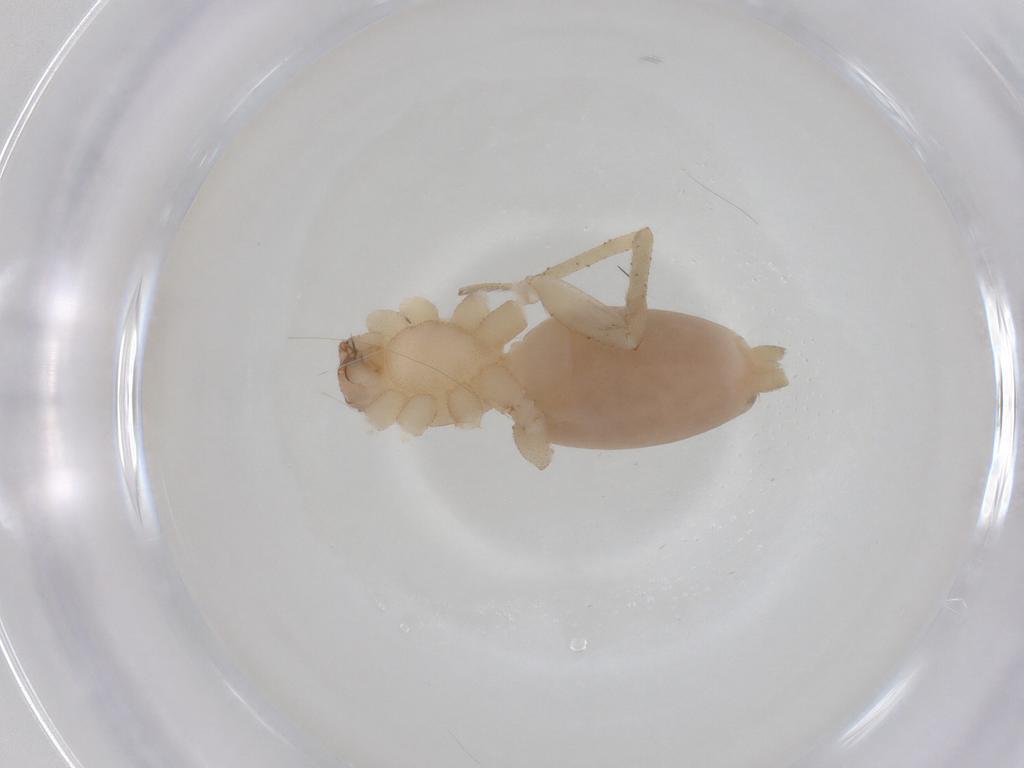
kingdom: Animalia
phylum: Arthropoda
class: Arachnida
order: Araneae
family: Gnaphosidae
